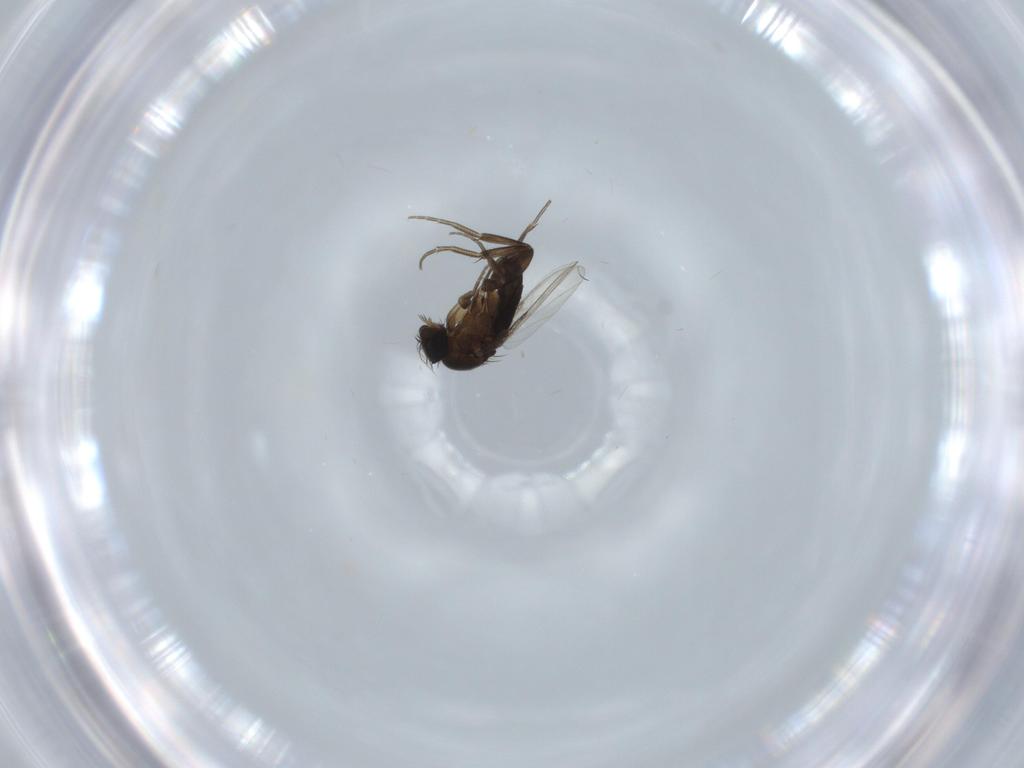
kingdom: Animalia
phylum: Arthropoda
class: Insecta
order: Diptera
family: Phoridae
